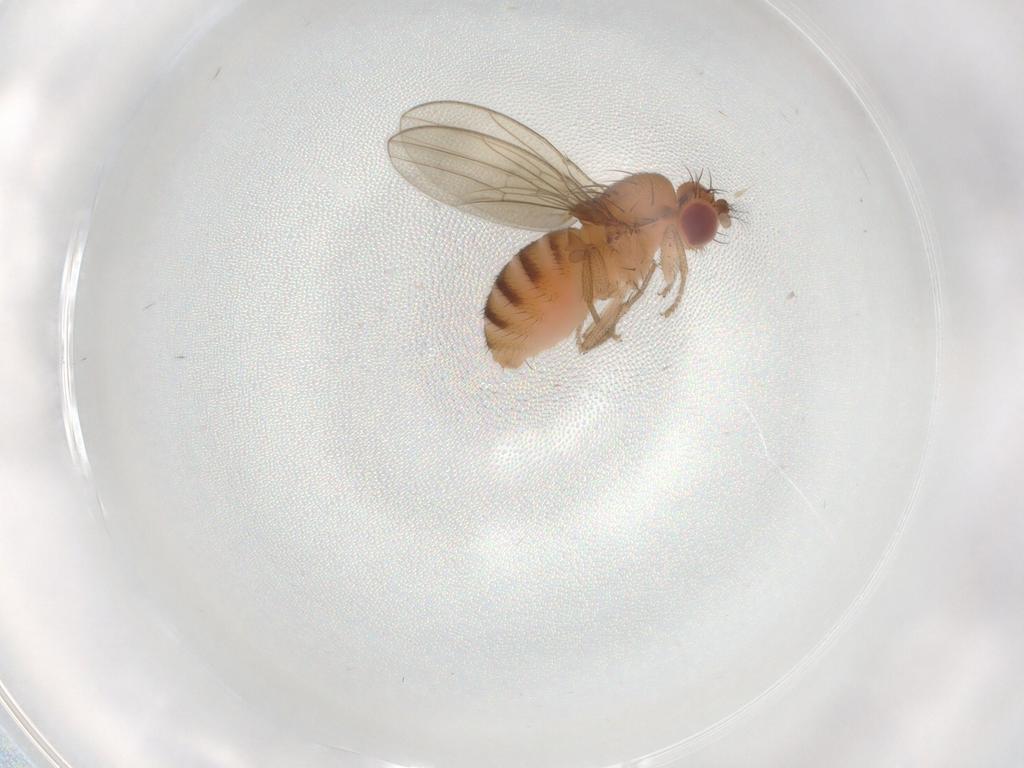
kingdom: Animalia
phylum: Arthropoda
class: Insecta
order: Diptera
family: Drosophilidae
